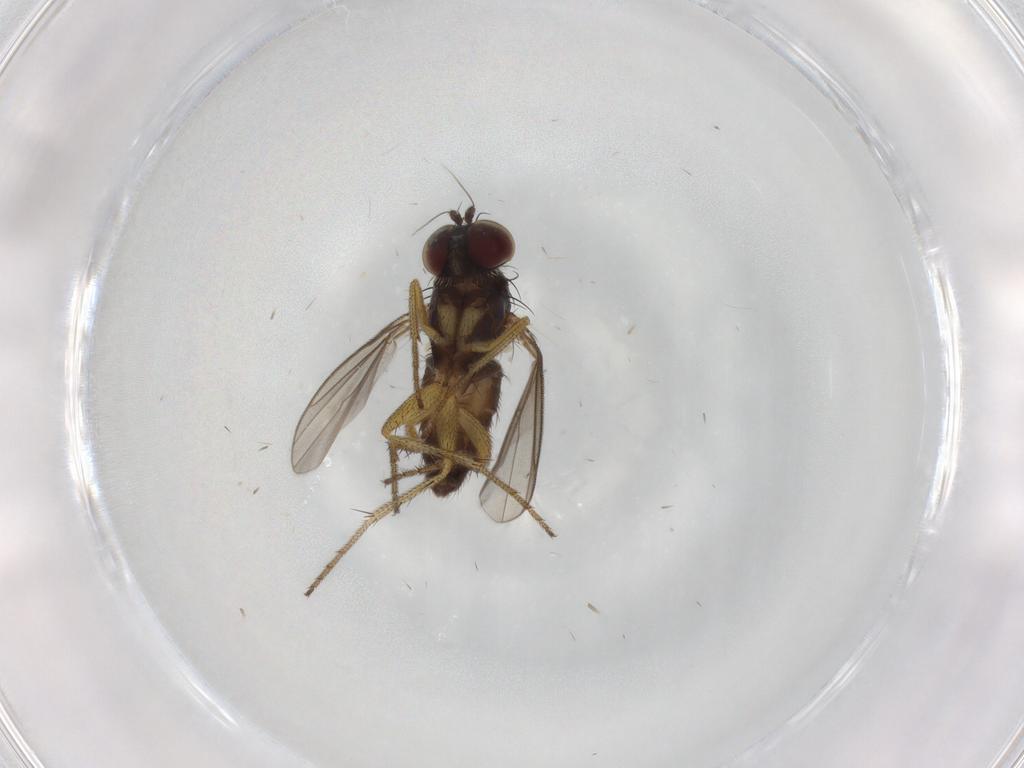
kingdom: Animalia
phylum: Arthropoda
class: Insecta
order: Diptera
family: Dolichopodidae
